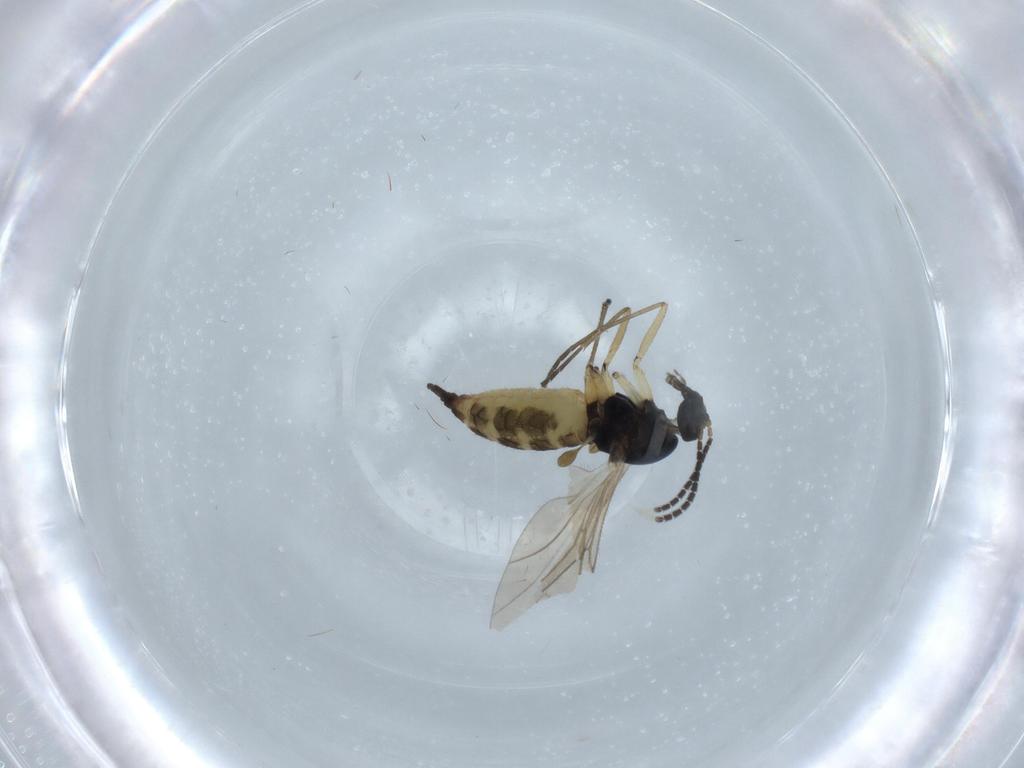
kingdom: Animalia
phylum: Arthropoda
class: Insecta
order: Diptera
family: Sciaridae
